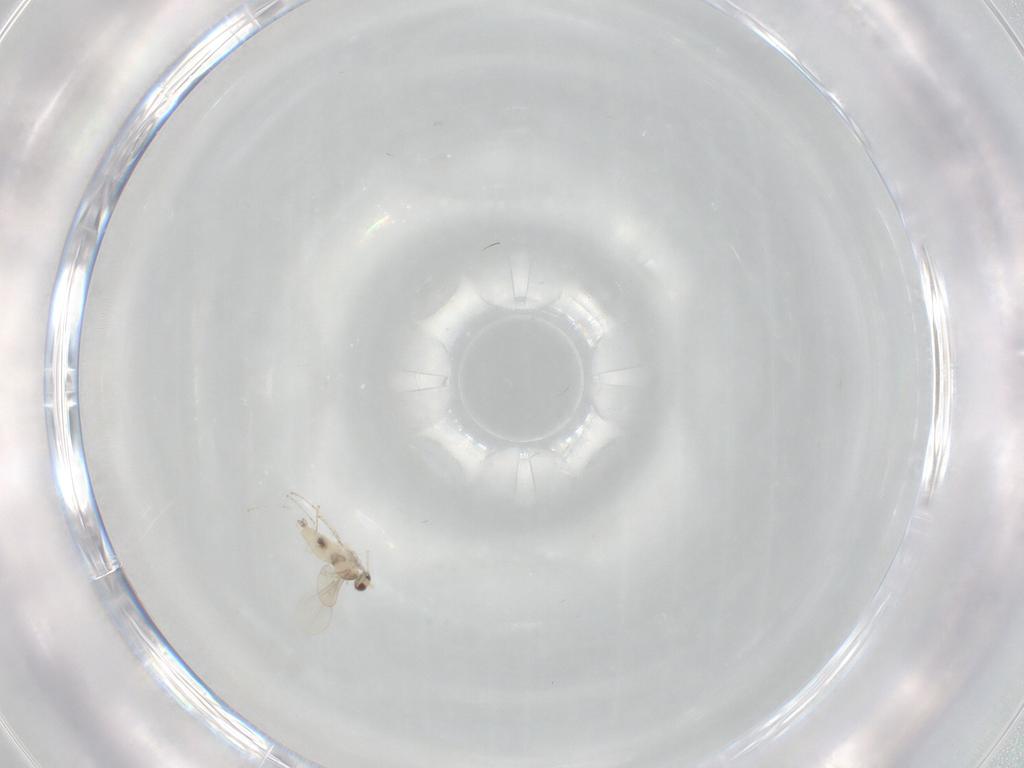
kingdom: Animalia
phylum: Arthropoda
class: Insecta
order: Diptera
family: Cecidomyiidae
